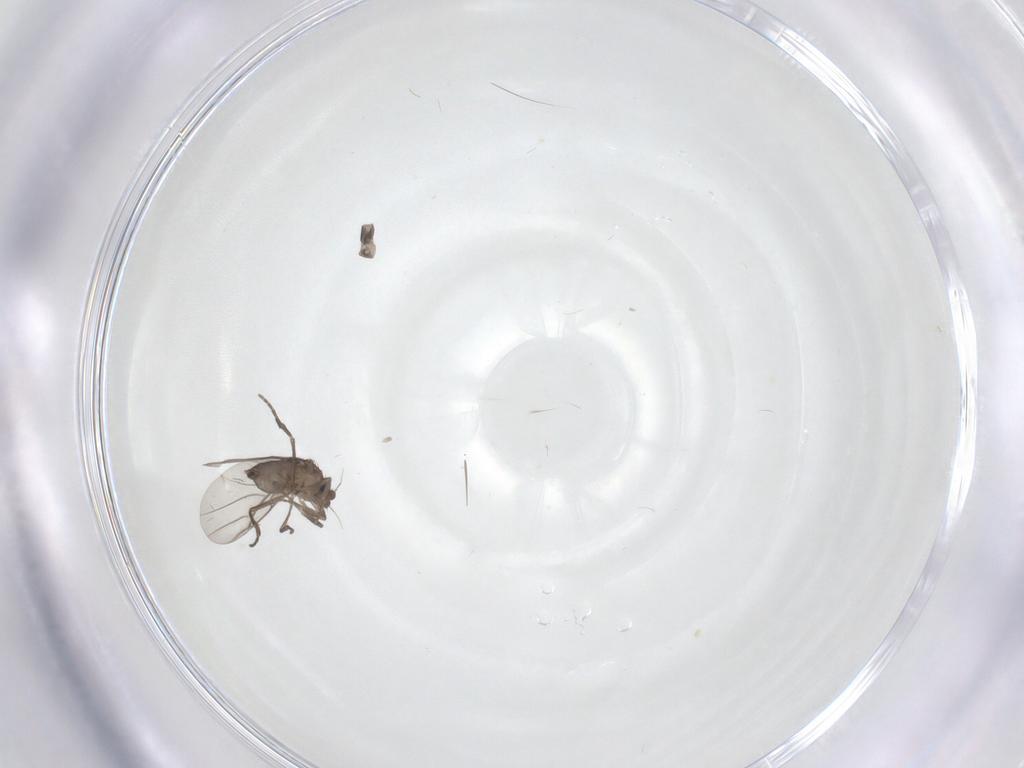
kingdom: Animalia
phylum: Arthropoda
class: Insecta
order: Diptera
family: Phoridae
